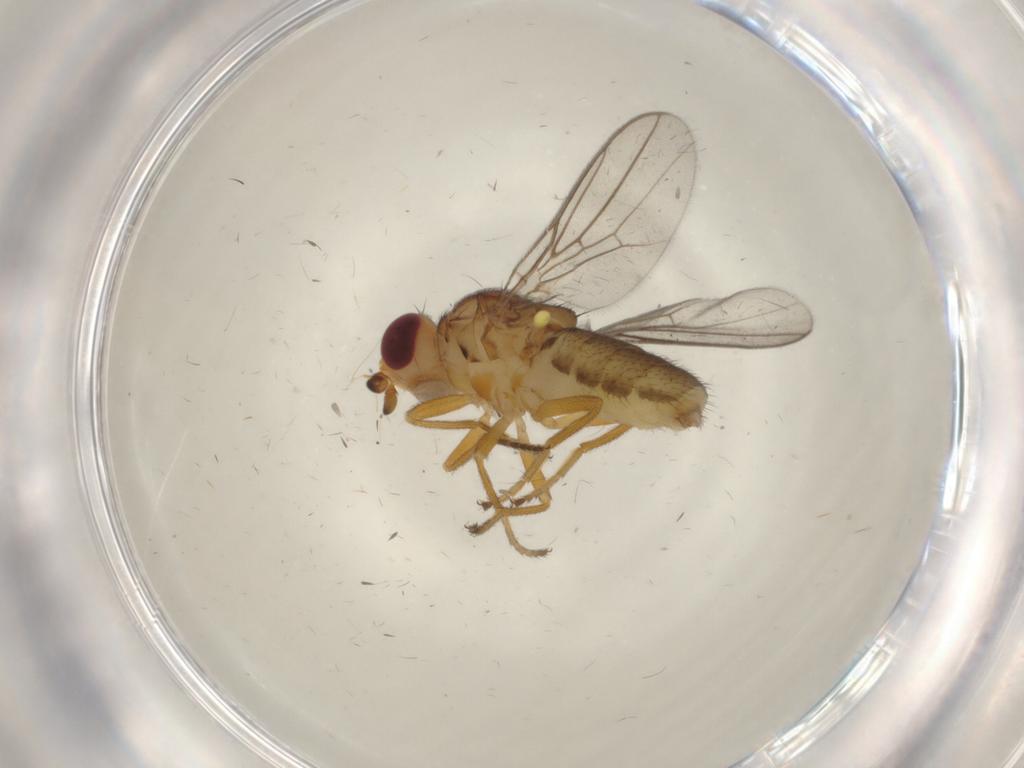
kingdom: Animalia
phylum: Arthropoda
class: Insecta
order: Diptera
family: Chloropidae
